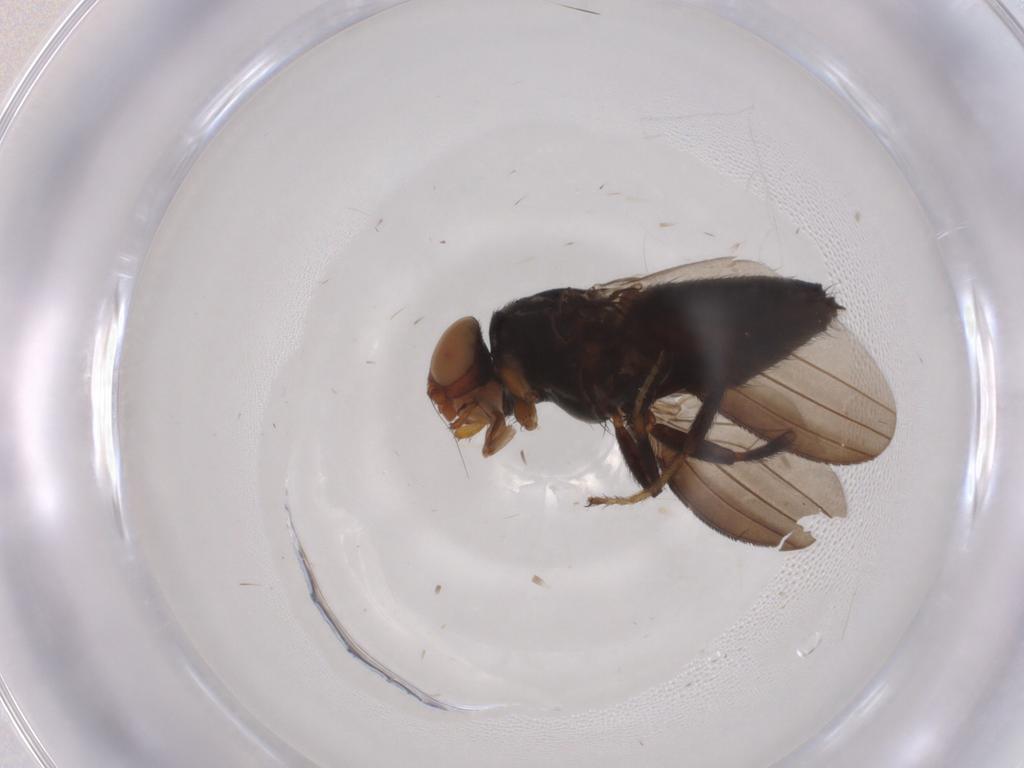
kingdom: Animalia
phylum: Arthropoda
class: Insecta
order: Diptera
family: Chloropidae
